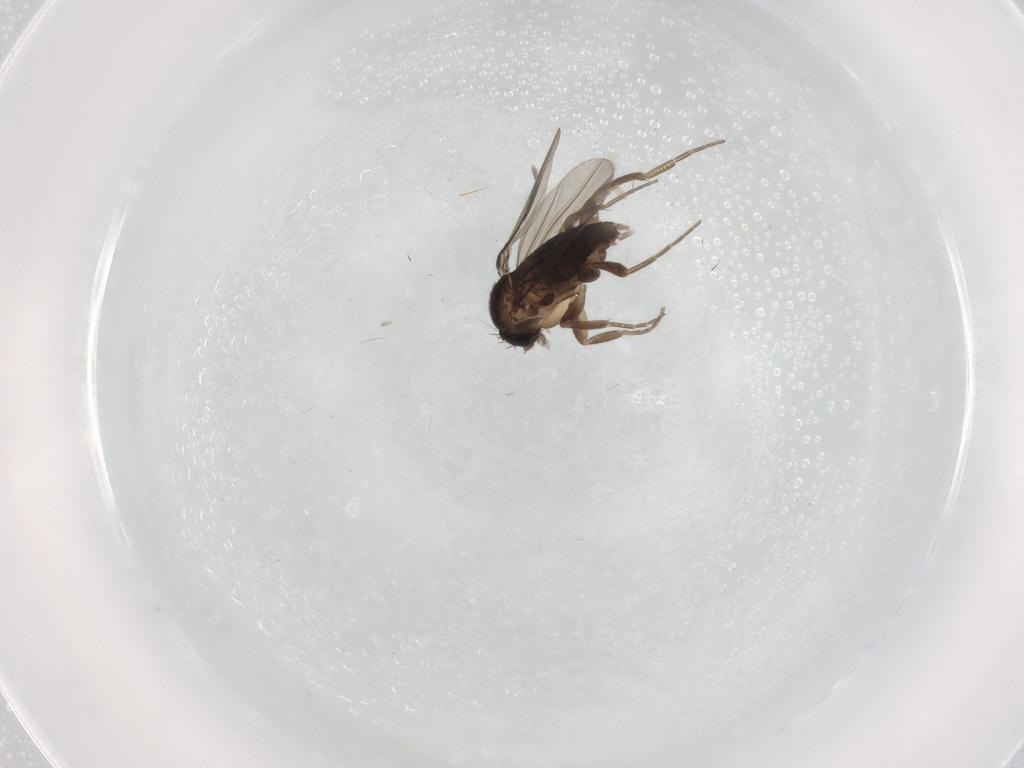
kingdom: Animalia
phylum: Arthropoda
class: Insecta
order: Diptera
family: Phoridae
